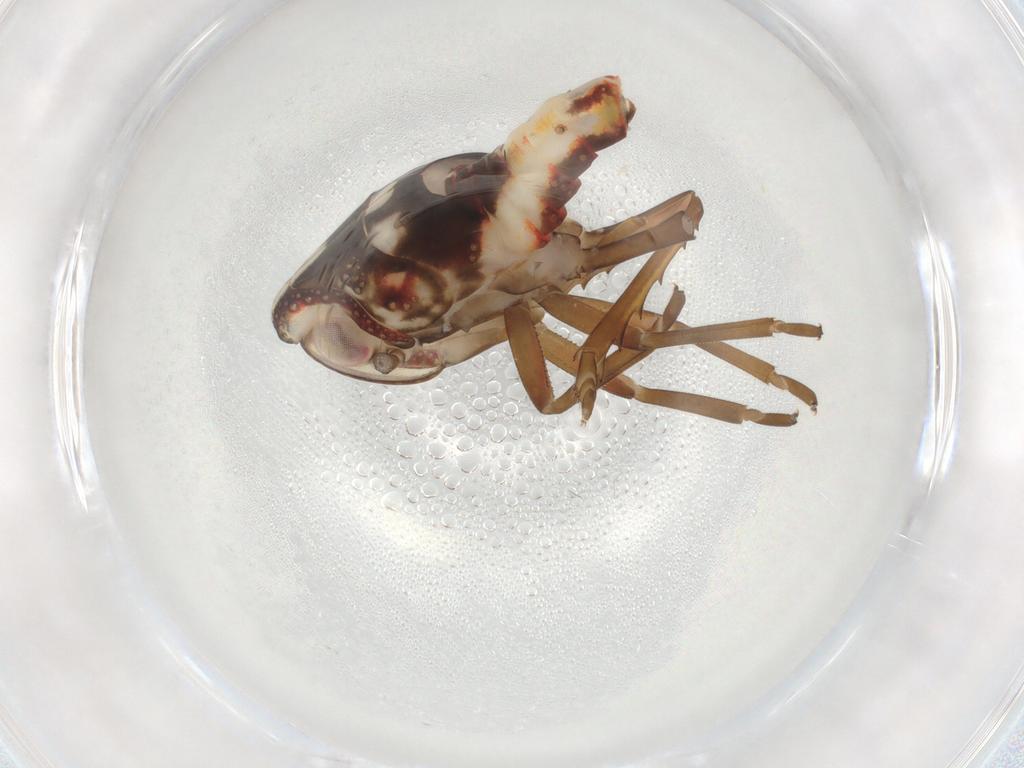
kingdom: Animalia
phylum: Arthropoda
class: Insecta
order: Hemiptera
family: Nogodinidae
